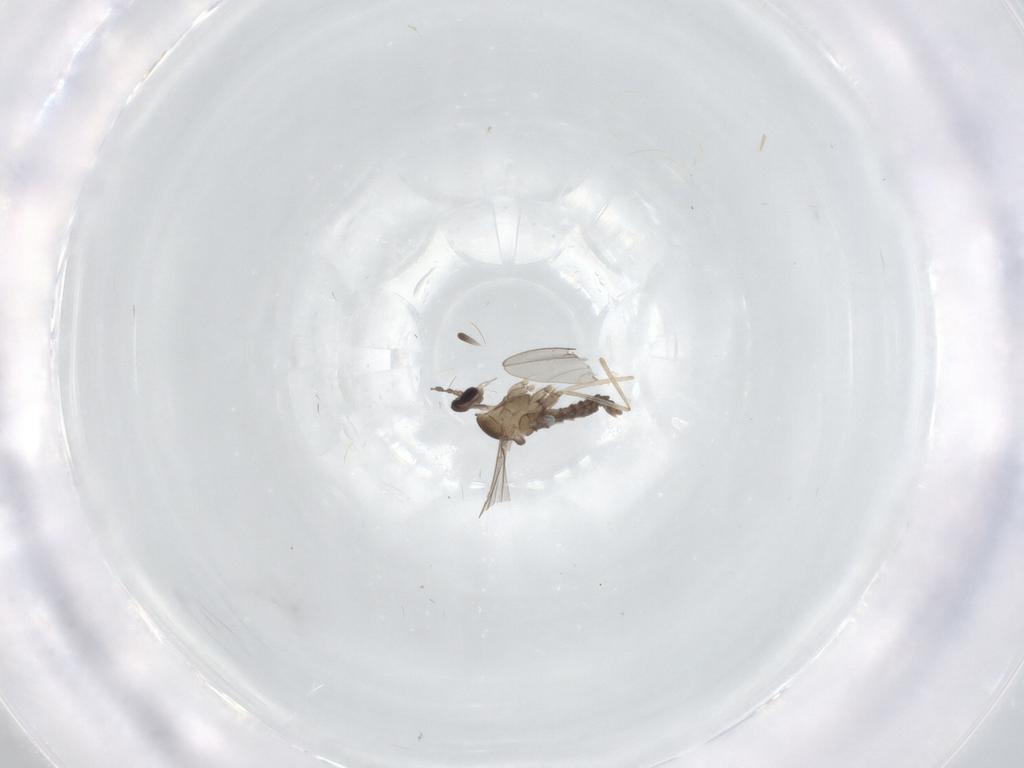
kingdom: Animalia
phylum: Arthropoda
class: Insecta
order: Diptera
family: Cecidomyiidae
